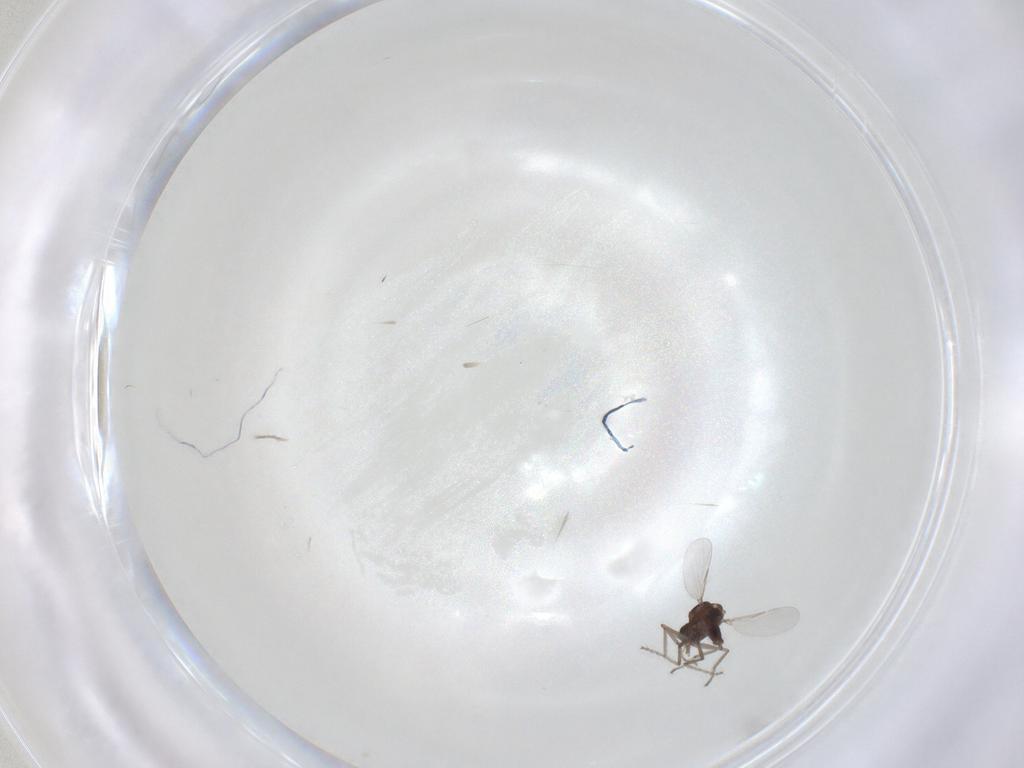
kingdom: Animalia
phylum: Arthropoda
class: Insecta
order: Diptera
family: Ceratopogonidae
